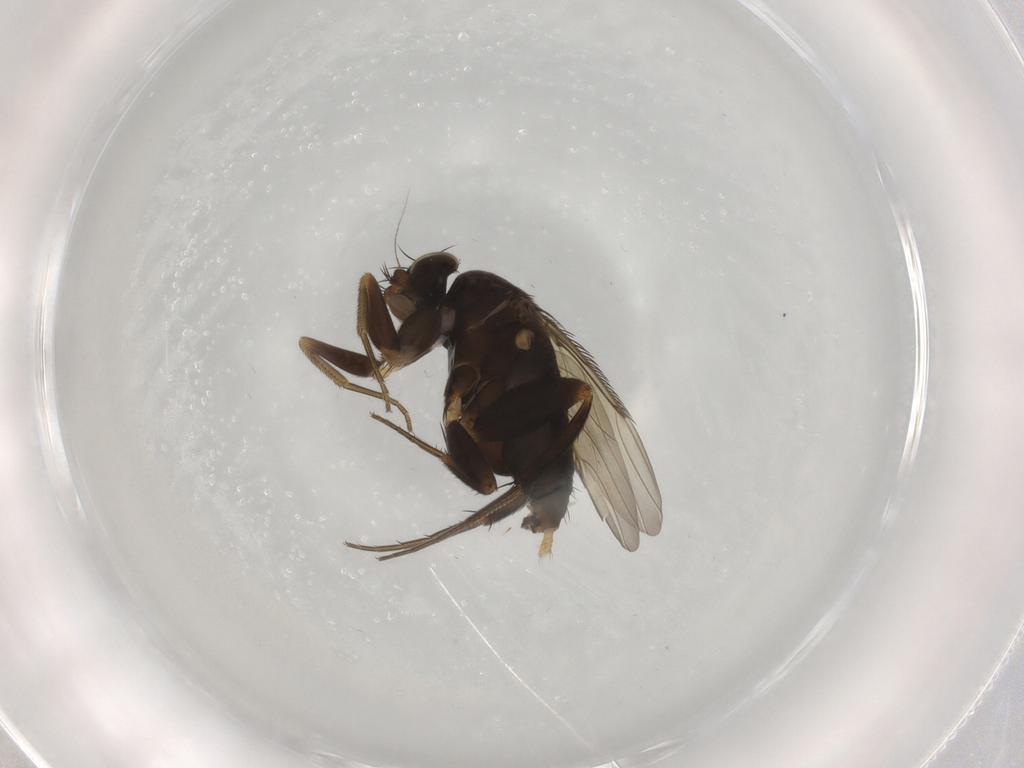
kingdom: Animalia
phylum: Arthropoda
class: Insecta
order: Diptera
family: Phoridae
